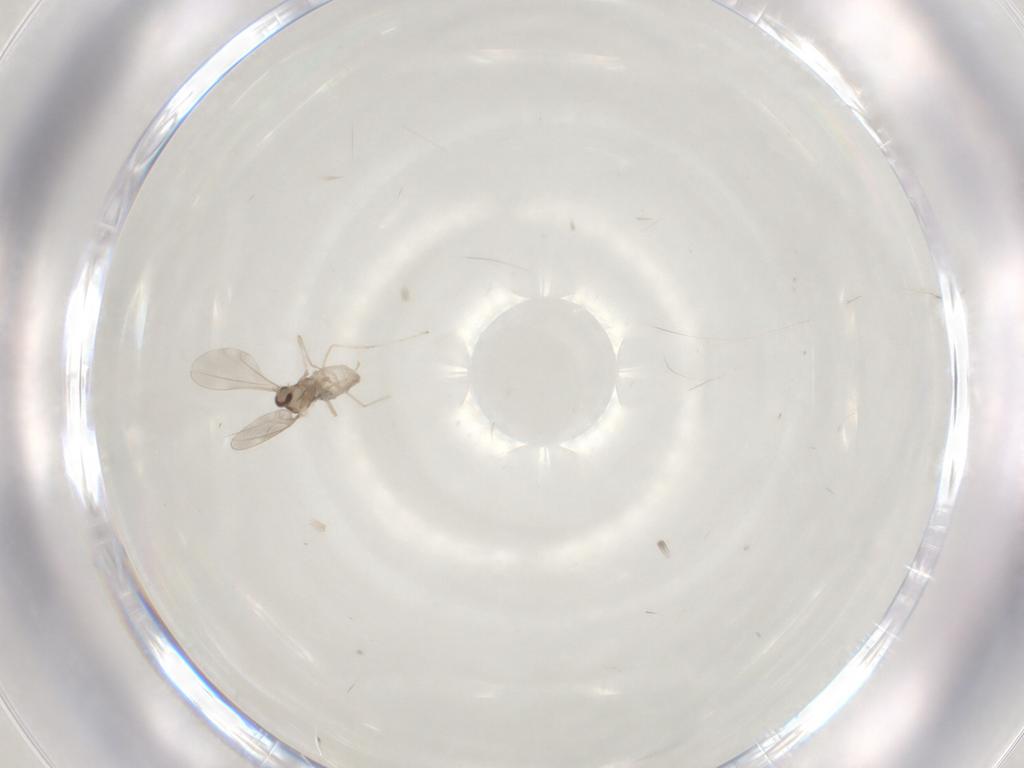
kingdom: Animalia
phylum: Arthropoda
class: Insecta
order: Diptera
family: Cecidomyiidae
